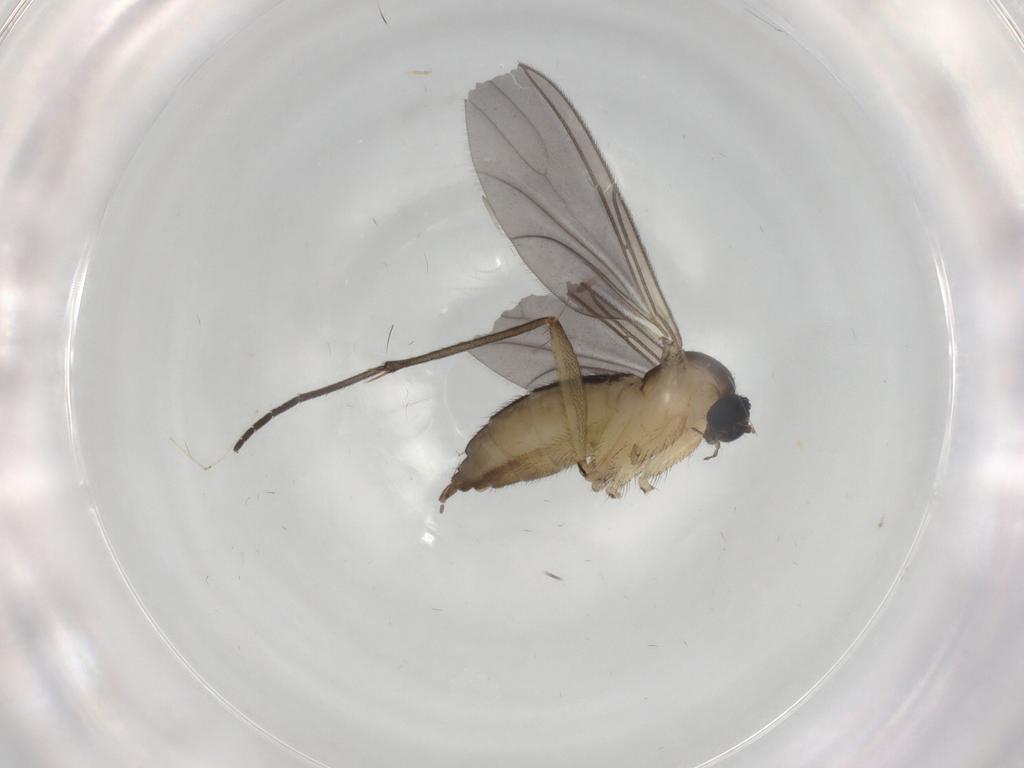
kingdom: Animalia
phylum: Arthropoda
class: Insecta
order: Diptera
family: Sciaridae
